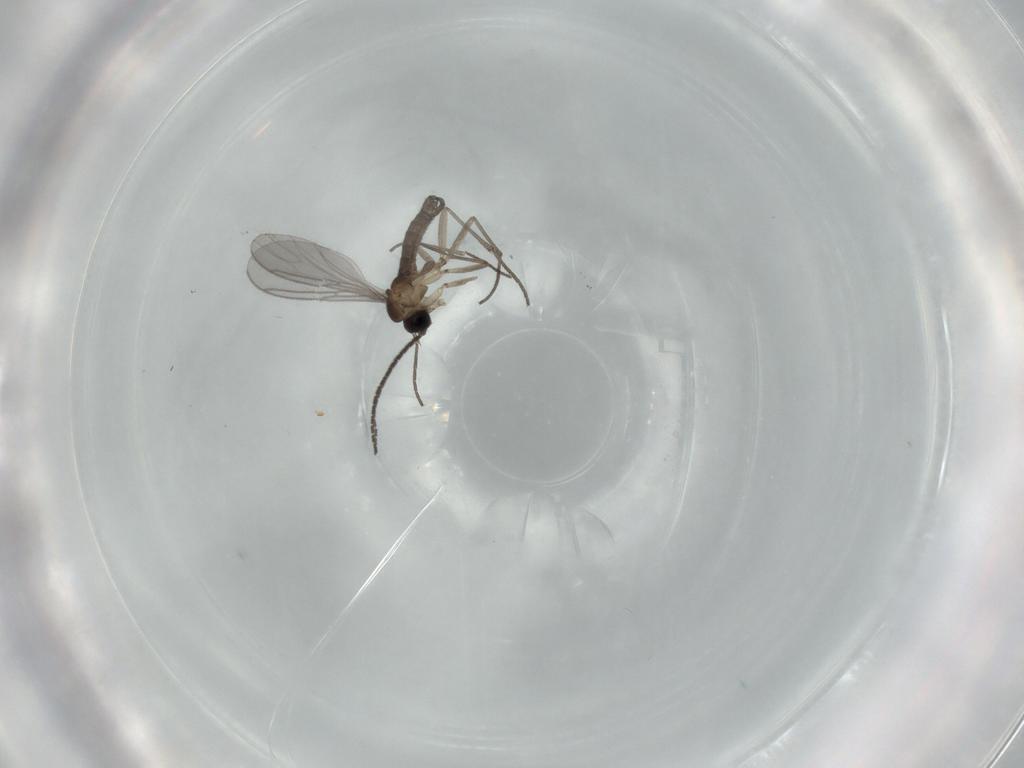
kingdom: Animalia
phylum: Arthropoda
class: Insecta
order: Diptera
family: Sciaridae
